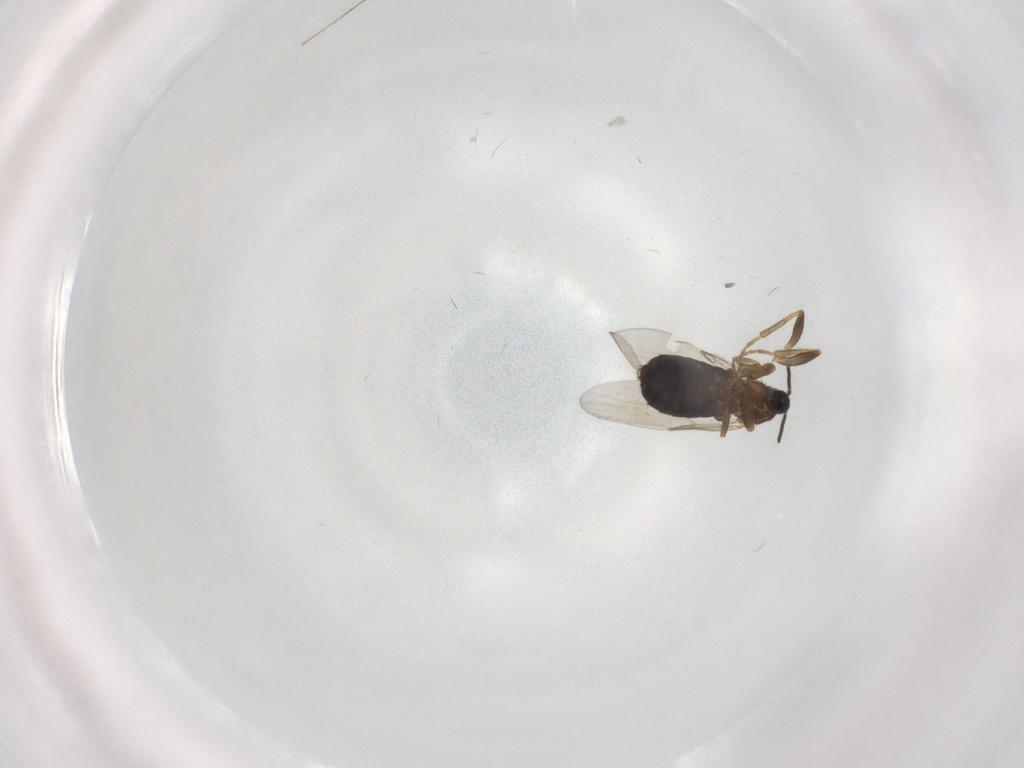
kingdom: Animalia
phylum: Arthropoda
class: Insecta
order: Diptera
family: Scatopsidae
